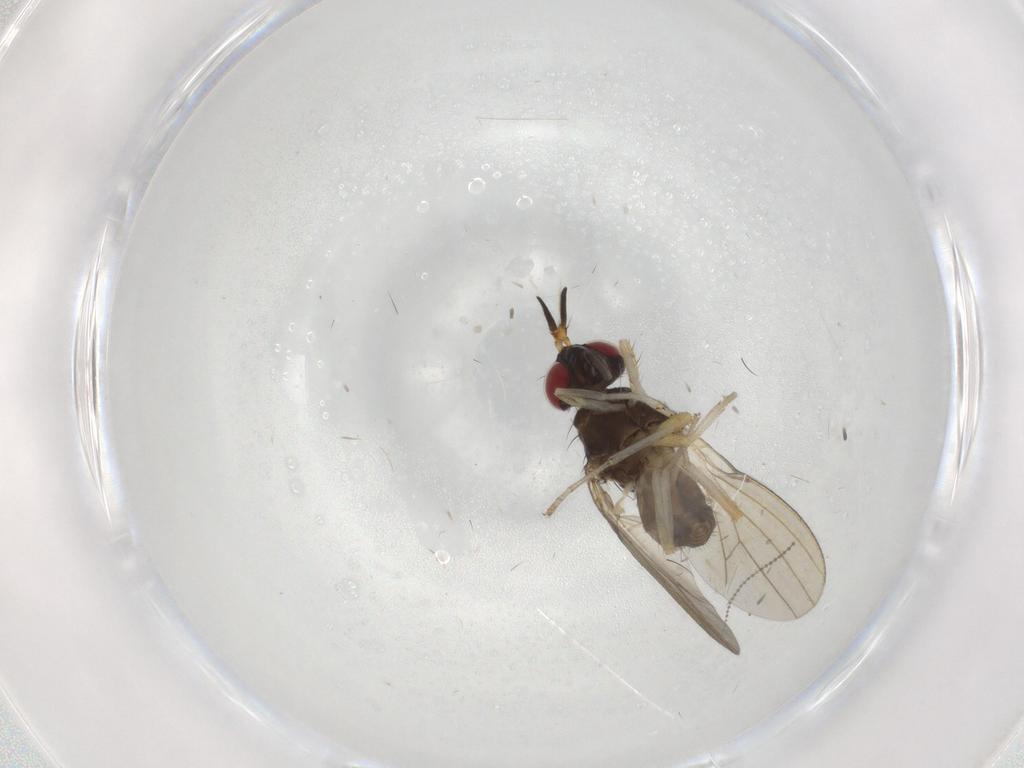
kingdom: Animalia
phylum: Arthropoda
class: Insecta
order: Diptera
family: Lauxaniidae
